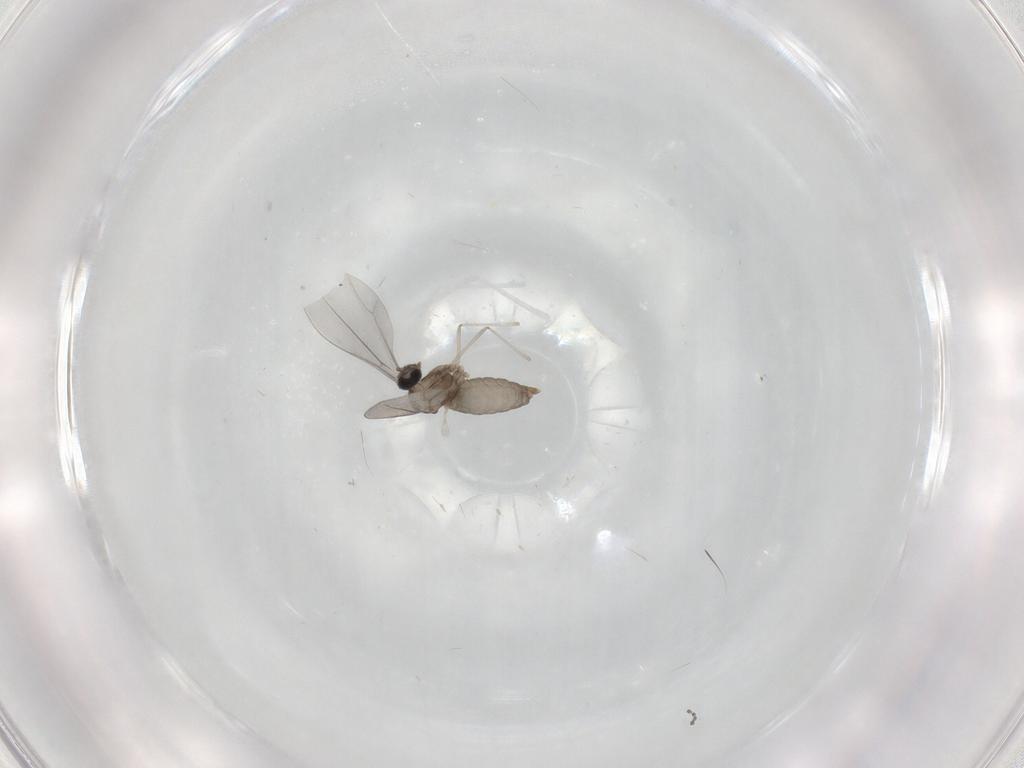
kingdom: Animalia
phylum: Arthropoda
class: Insecta
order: Diptera
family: Cecidomyiidae
